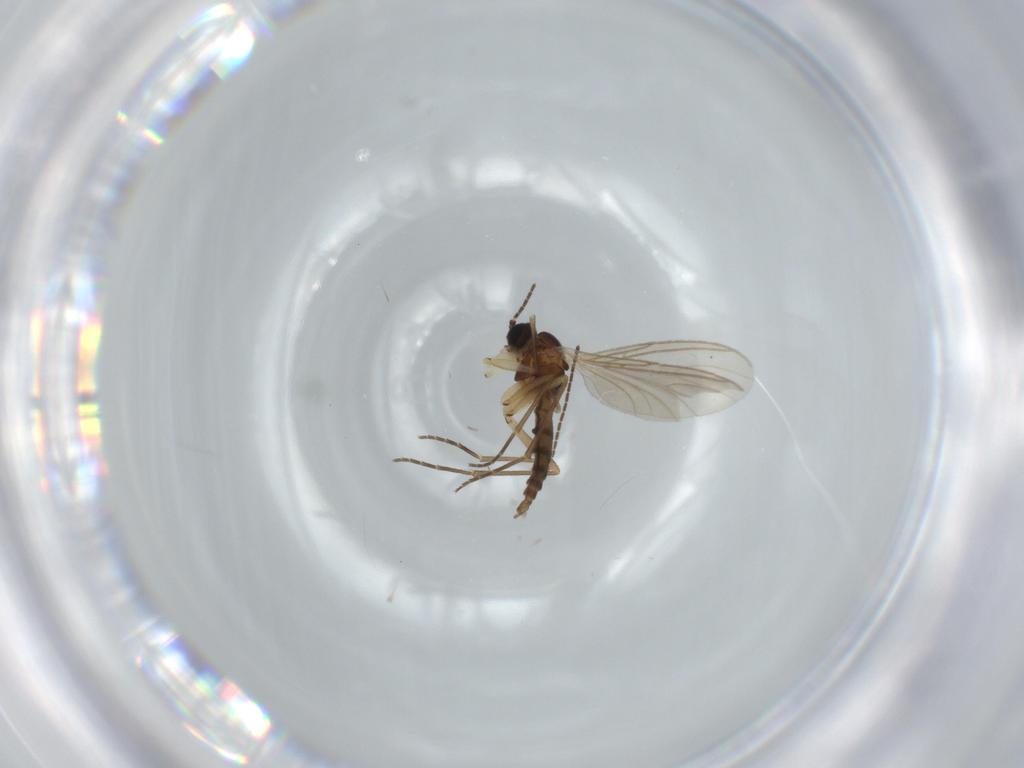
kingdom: Animalia
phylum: Arthropoda
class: Insecta
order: Diptera
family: Sciaridae
